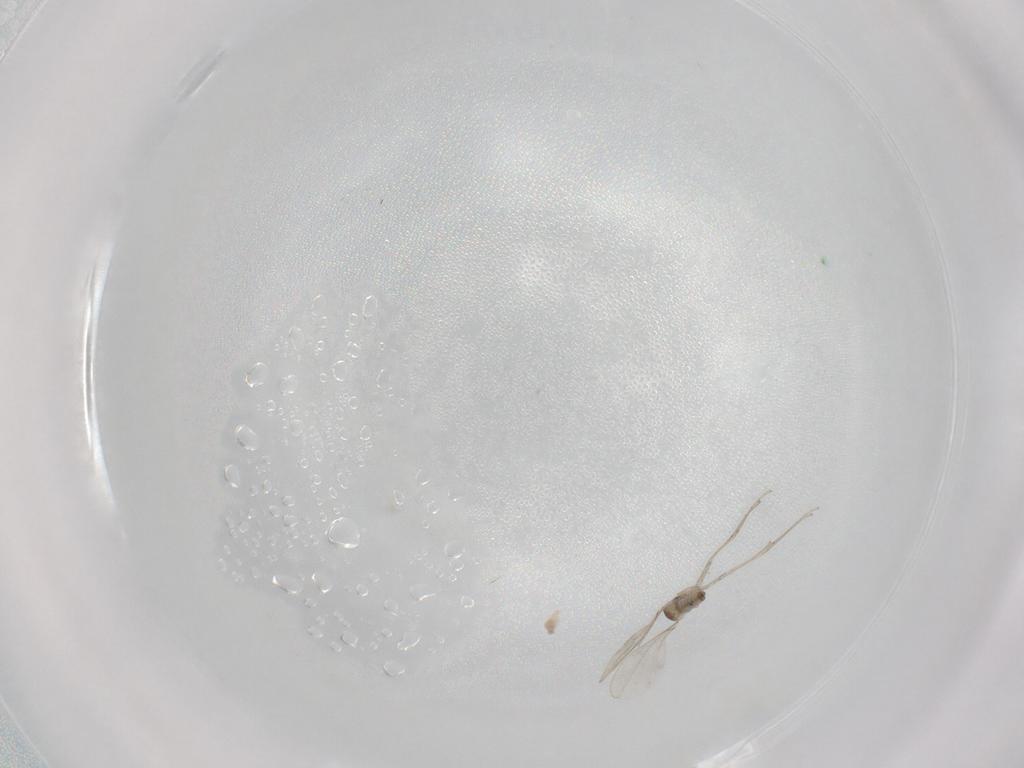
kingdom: Animalia
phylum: Arthropoda
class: Insecta
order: Diptera
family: Cecidomyiidae
